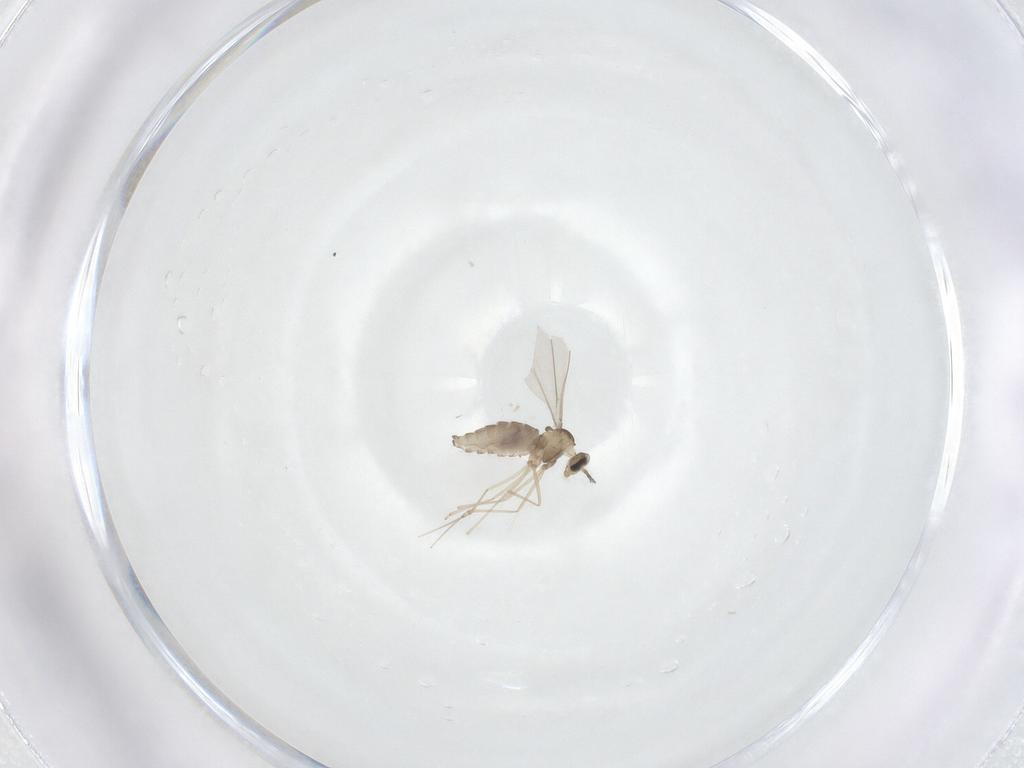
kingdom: Animalia
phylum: Arthropoda
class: Insecta
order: Diptera
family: Cecidomyiidae
